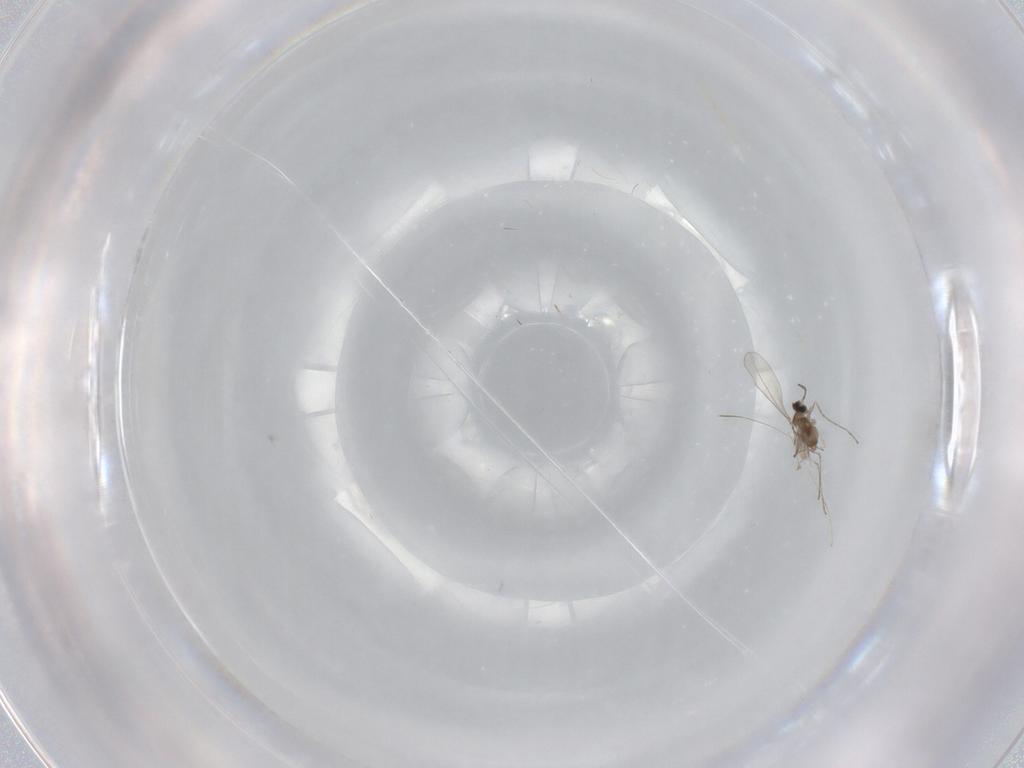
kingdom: Animalia
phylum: Arthropoda
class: Insecta
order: Diptera
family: Cecidomyiidae
